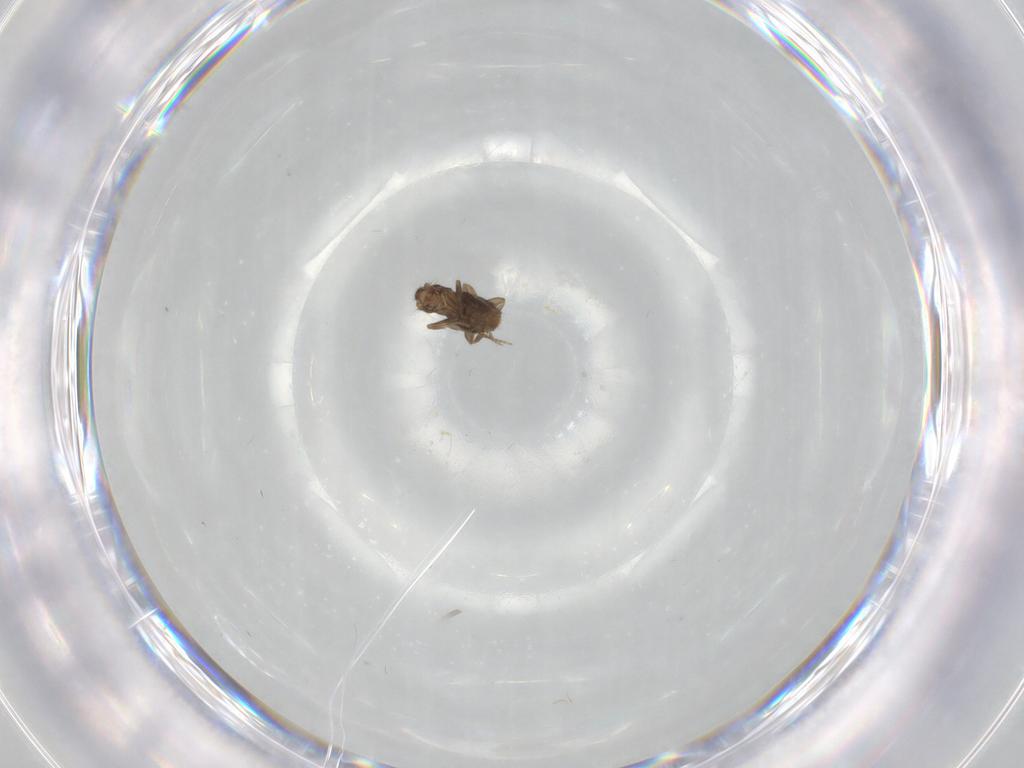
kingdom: Animalia
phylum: Arthropoda
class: Insecta
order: Diptera
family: Phoridae
